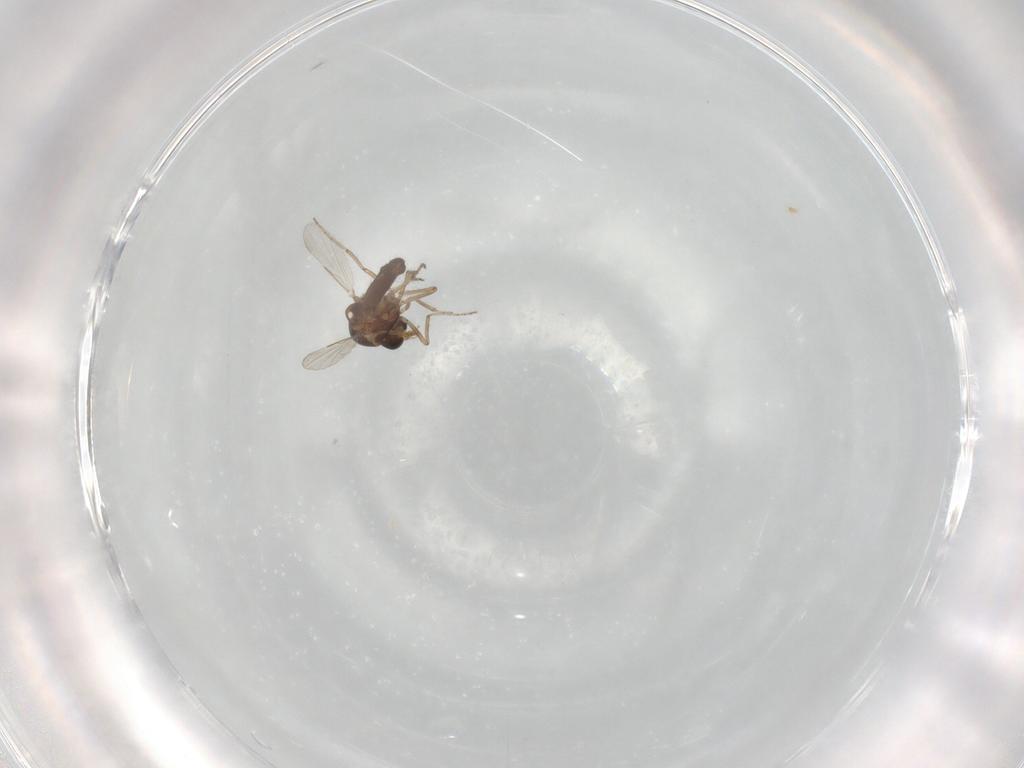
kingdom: Animalia
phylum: Arthropoda
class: Insecta
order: Diptera
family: Ceratopogonidae
